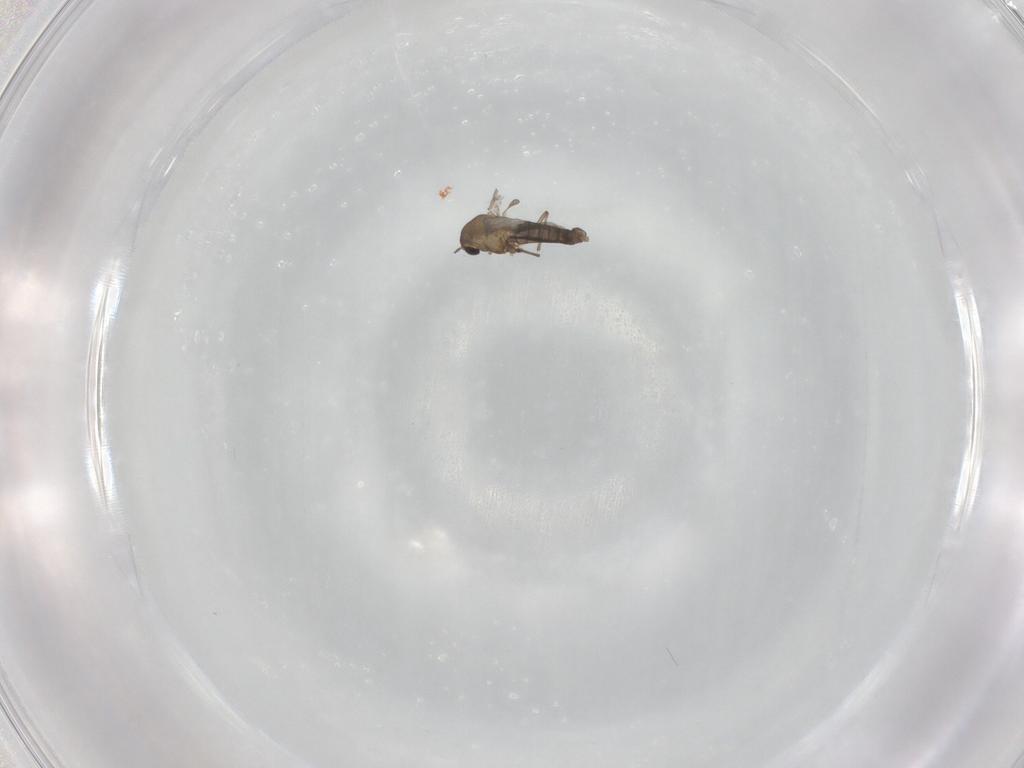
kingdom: Animalia
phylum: Arthropoda
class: Insecta
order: Diptera
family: Chironomidae
